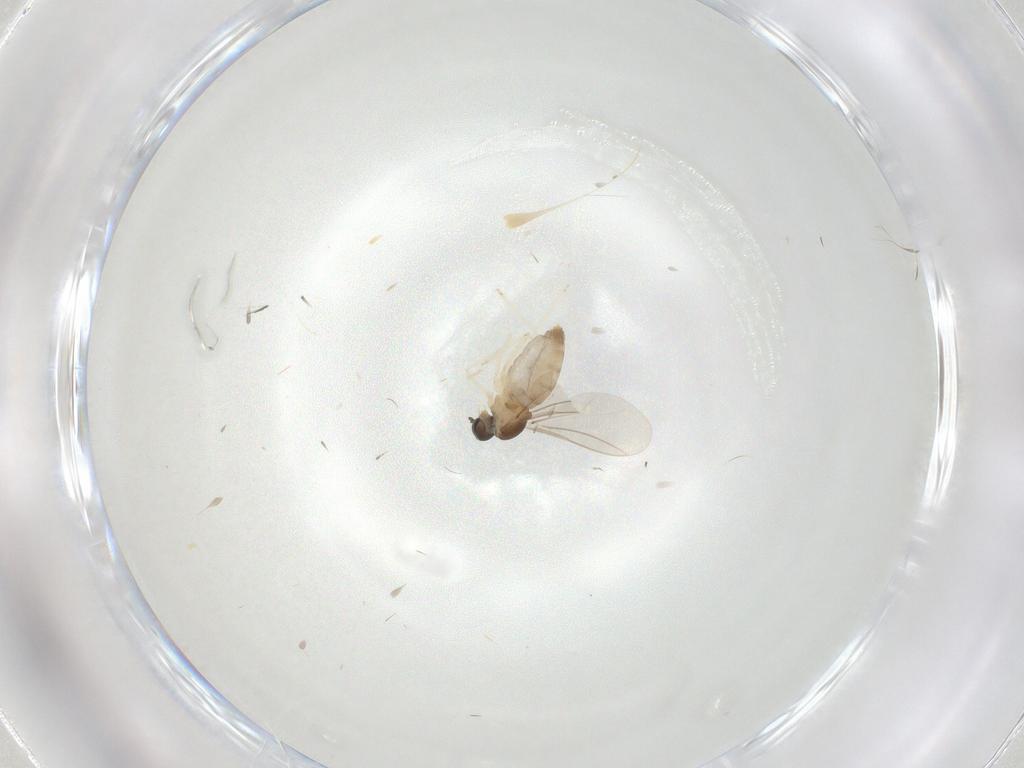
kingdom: Animalia
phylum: Arthropoda
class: Insecta
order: Diptera
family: Cecidomyiidae
